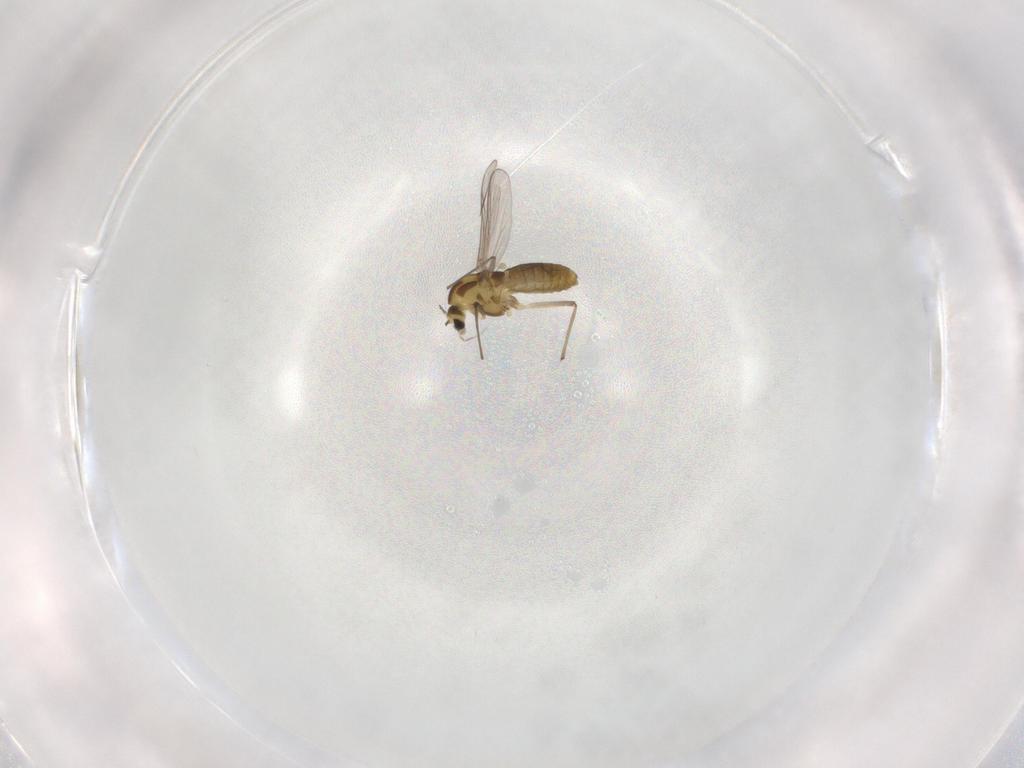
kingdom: Animalia
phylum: Arthropoda
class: Insecta
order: Diptera
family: Chironomidae
